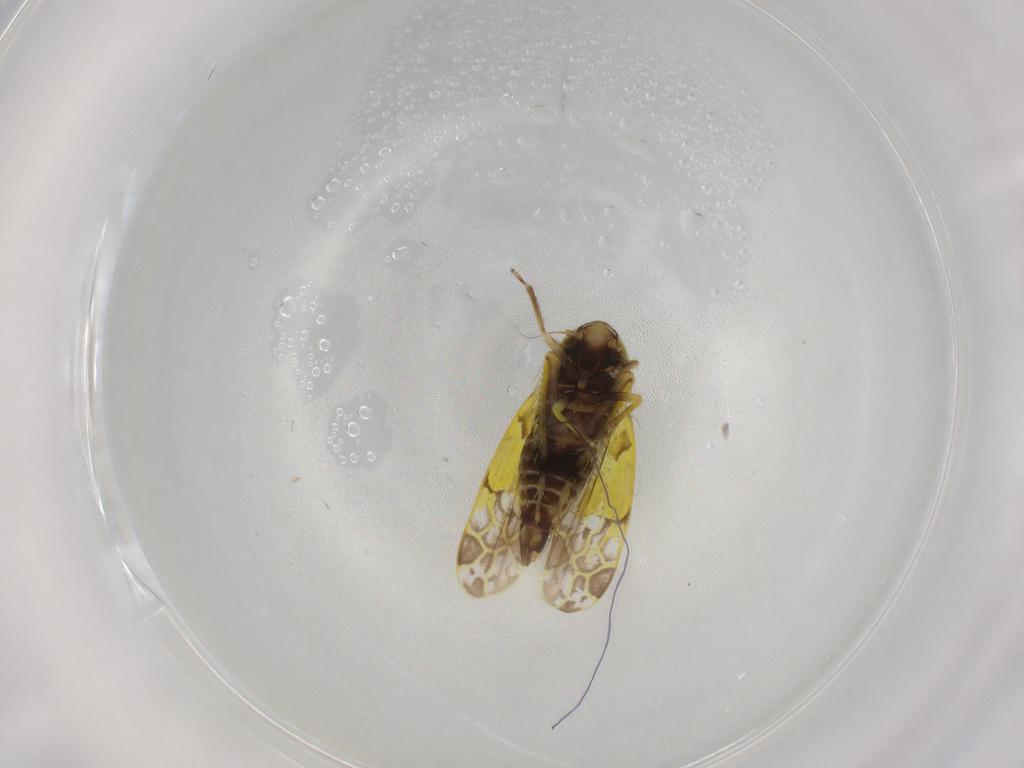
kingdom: Animalia
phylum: Arthropoda
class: Insecta
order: Hemiptera
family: Cicadellidae
